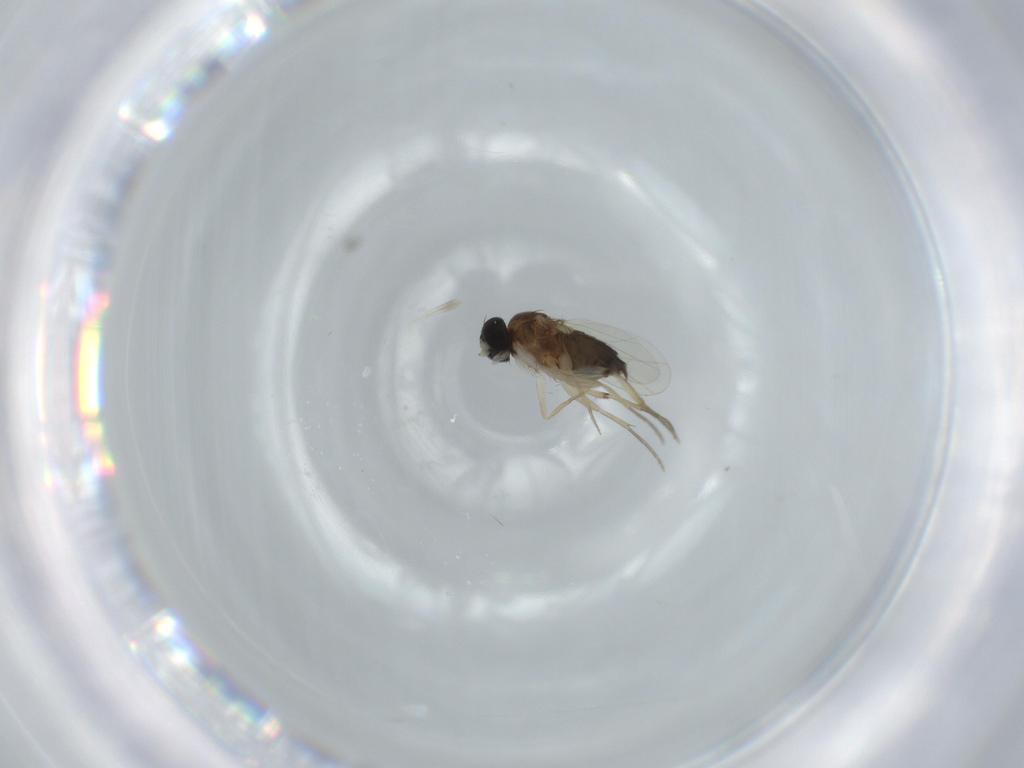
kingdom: Animalia
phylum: Arthropoda
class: Insecta
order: Diptera
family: Phoridae
